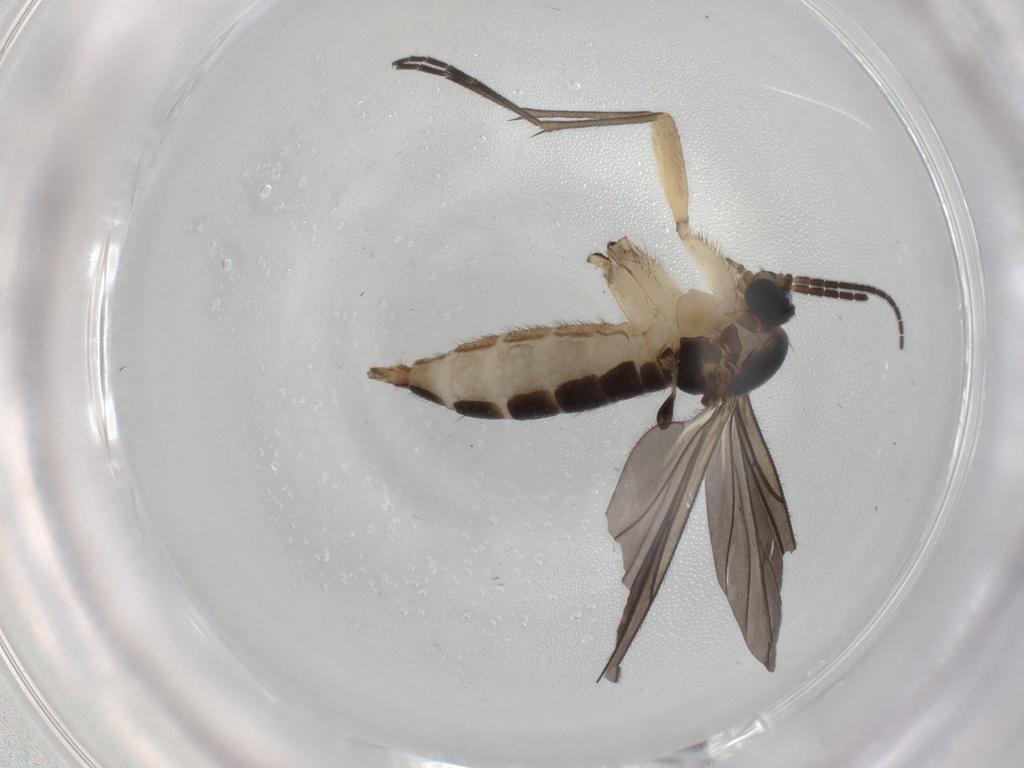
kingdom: Animalia
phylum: Arthropoda
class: Insecta
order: Diptera
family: Sciaridae
